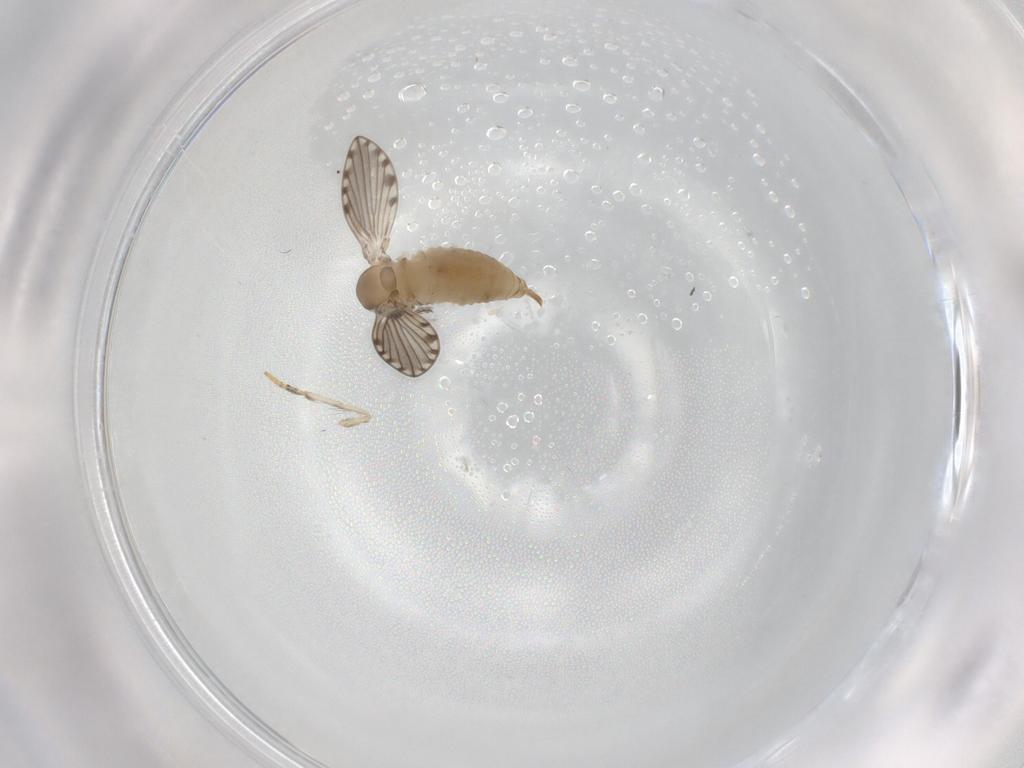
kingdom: Animalia
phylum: Arthropoda
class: Insecta
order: Diptera
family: Psychodidae
